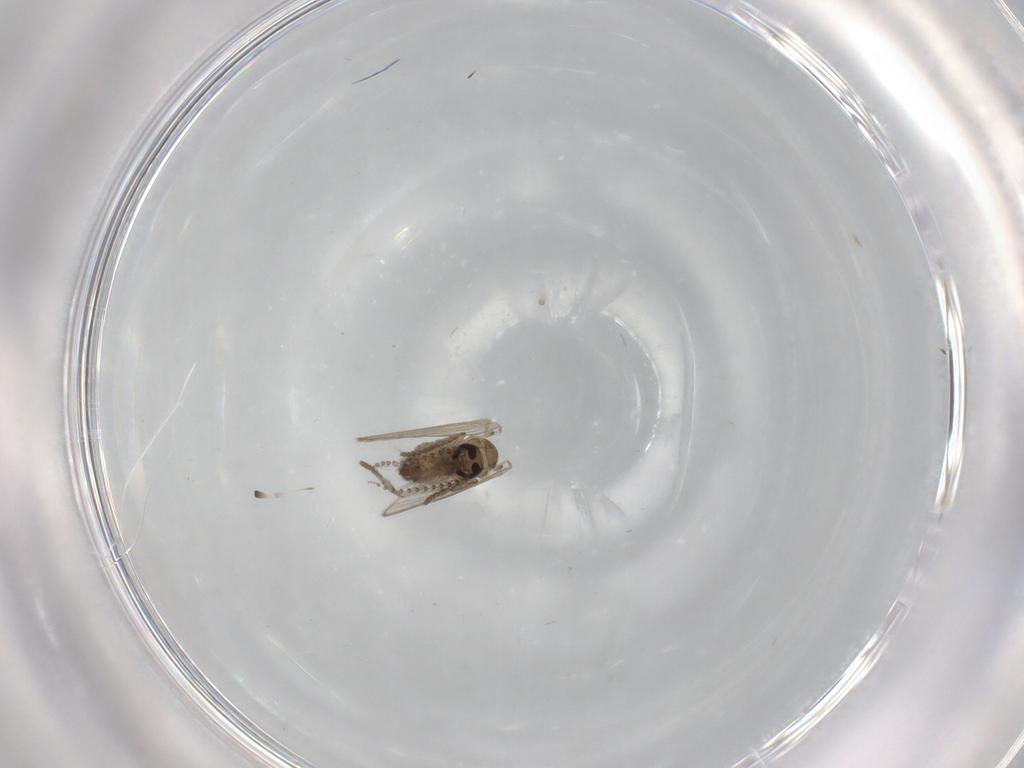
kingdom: Animalia
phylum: Arthropoda
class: Insecta
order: Diptera
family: Psychodidae
